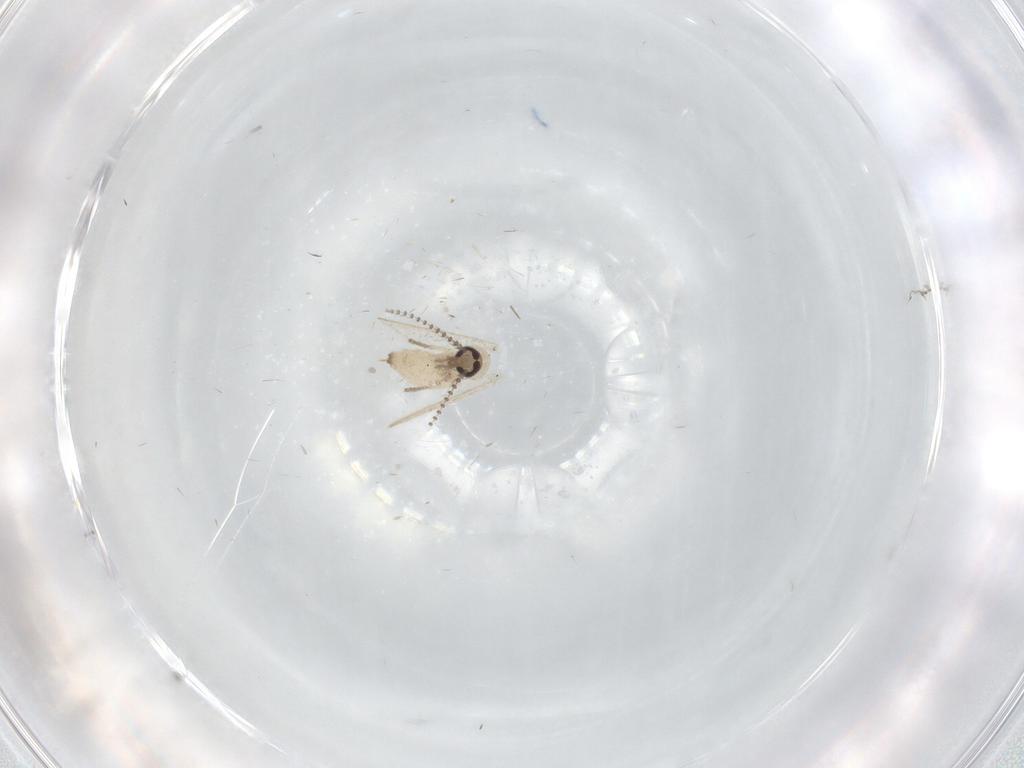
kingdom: Animalia
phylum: Arthropoda
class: Insecta
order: Diptera
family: Psychodidae
